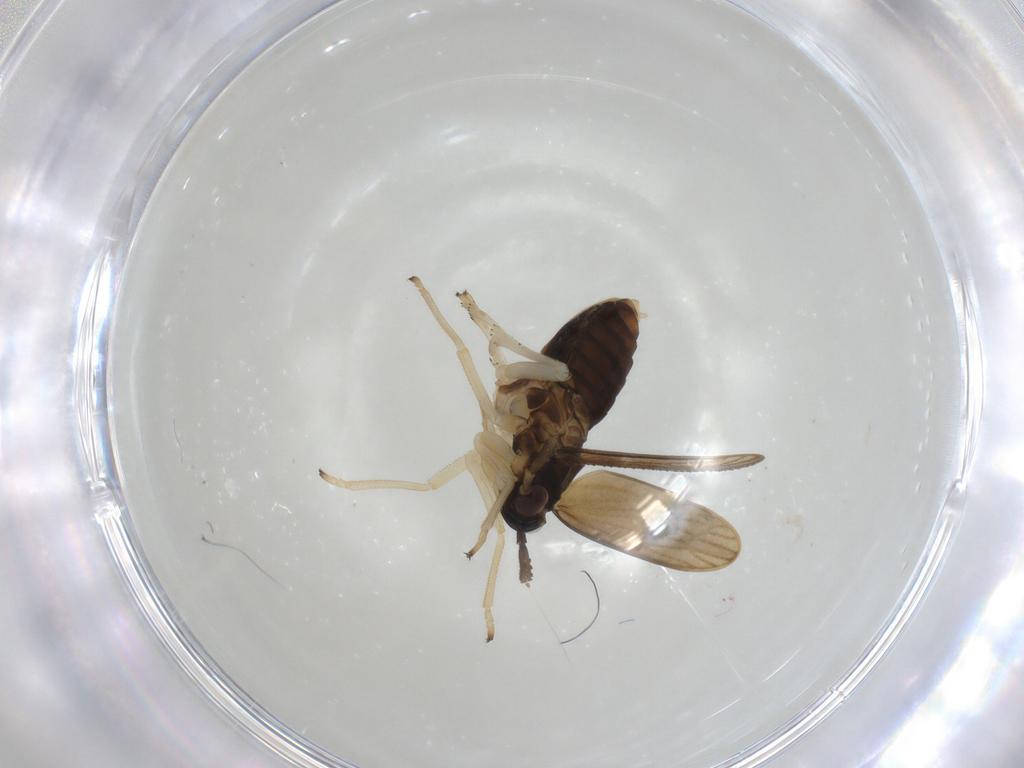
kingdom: Animalia
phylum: Arthropoda
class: Insecta
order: Hemiptera
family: Delphacidae
